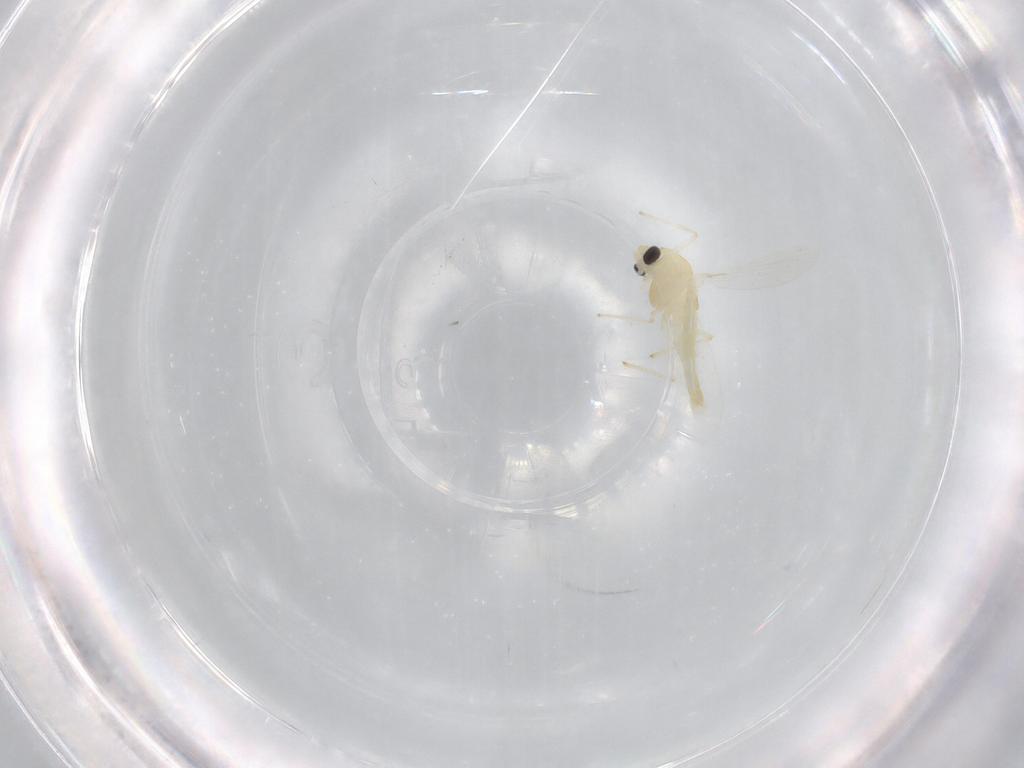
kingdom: Animalia
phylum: Arthropoda
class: Insecta
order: Diptera
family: Chironomidae
